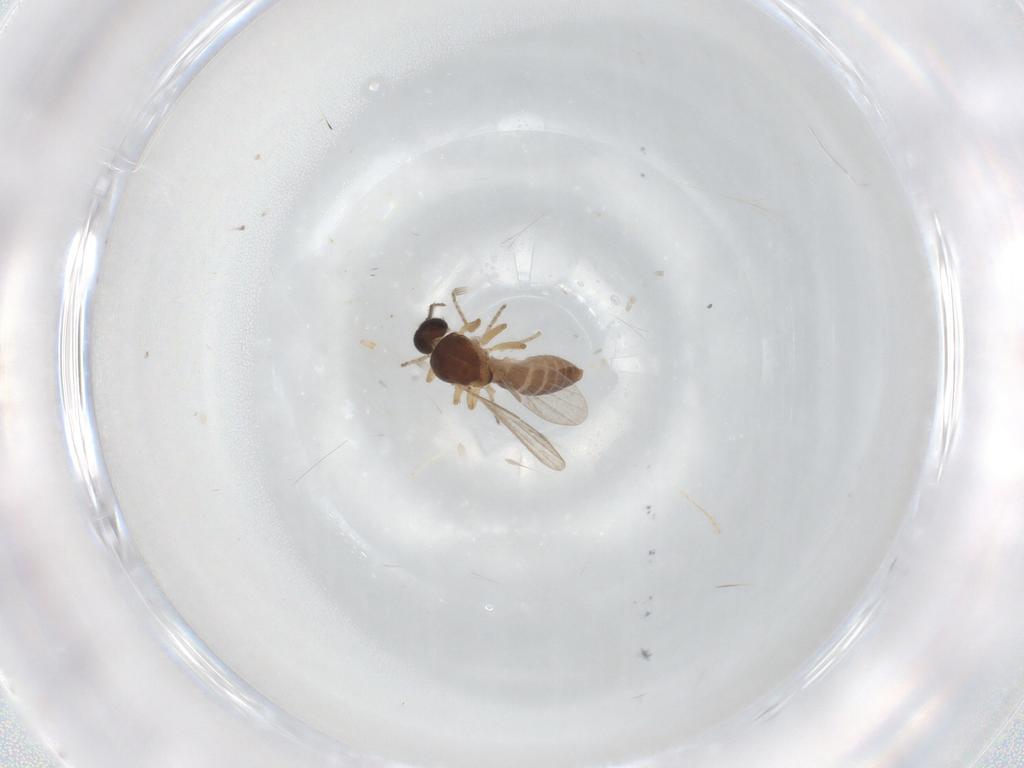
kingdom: Animalia
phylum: Arthropoda
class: Insecta
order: Diptera
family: Ceratopogonidae
